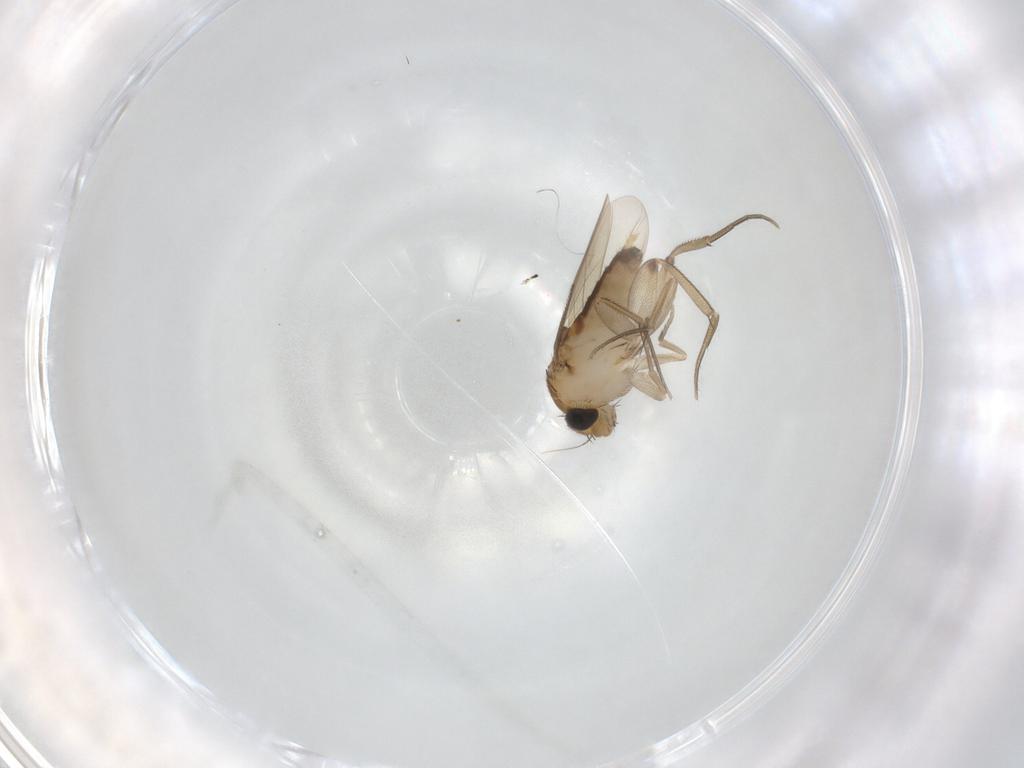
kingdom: Animalia
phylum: Arthropoda
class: Insecta
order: Diptera
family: Phoridae
